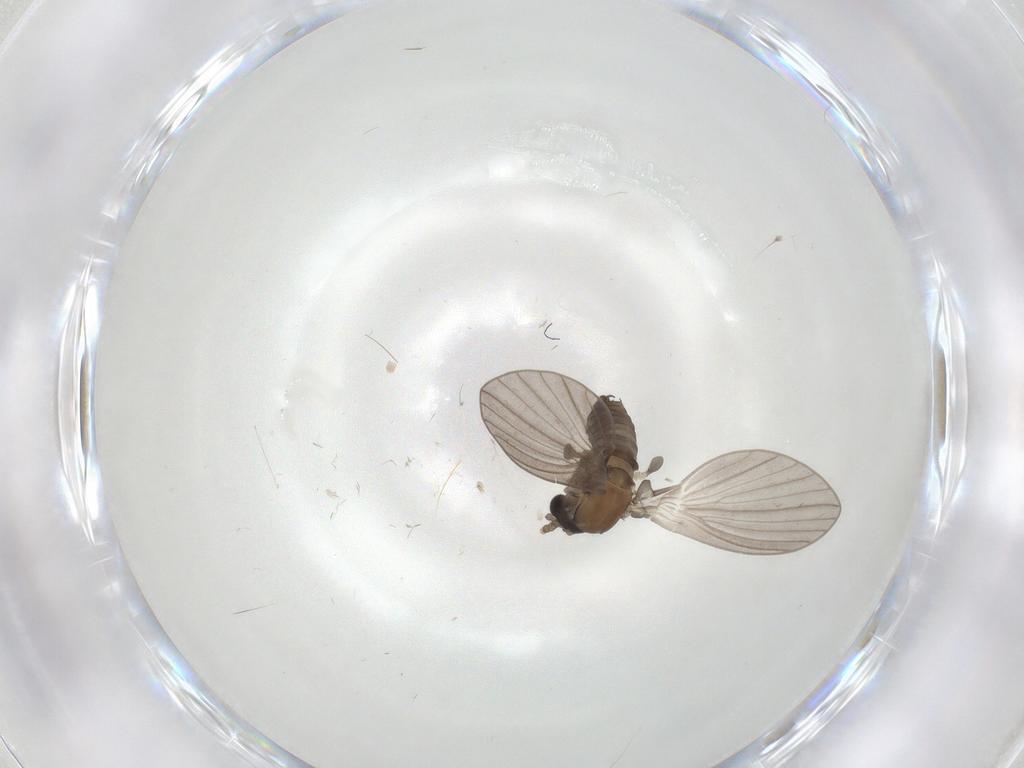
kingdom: Animalia
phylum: Arthropoda
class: Insecta
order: Diptera
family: Psychodidae
